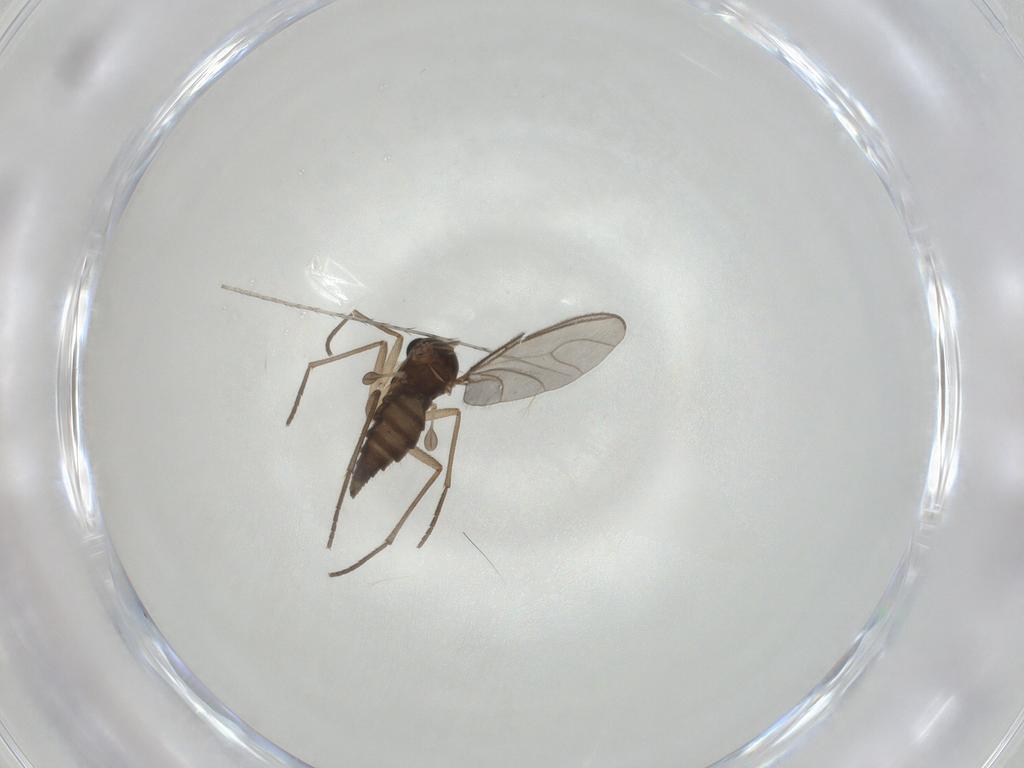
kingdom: Animalia
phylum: Arthropoda
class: Insecta
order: Diptera
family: Sciaridae
